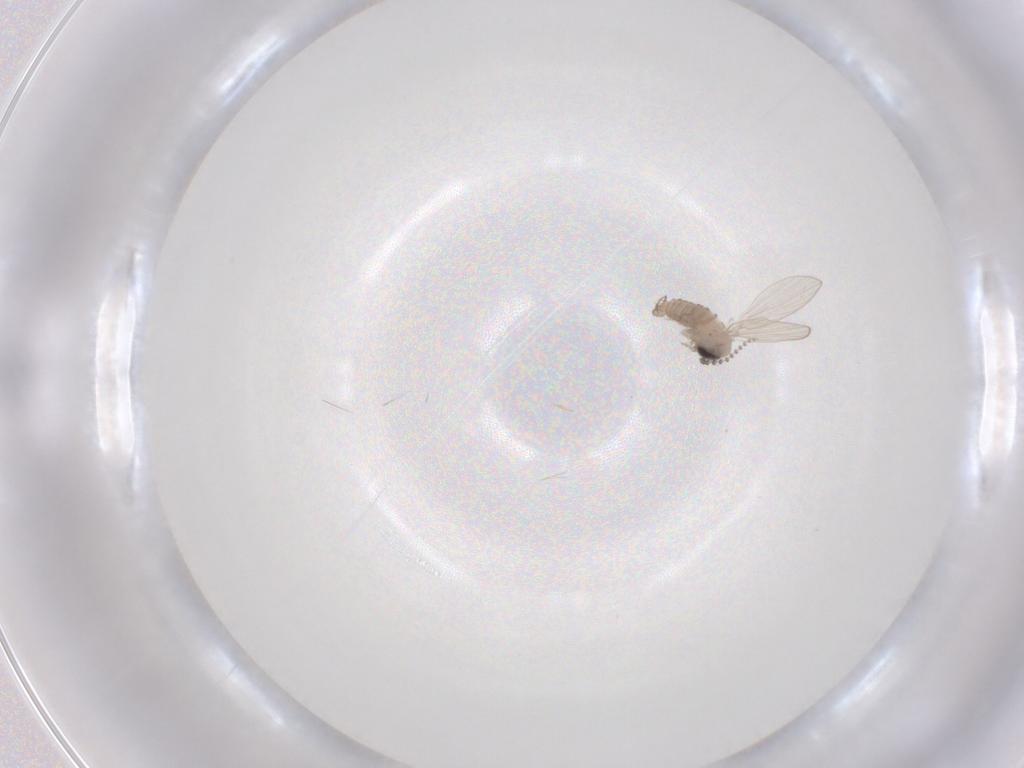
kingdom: Animalia
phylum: Arthropoda
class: Insecta
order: Diptera
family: Psychodidae
